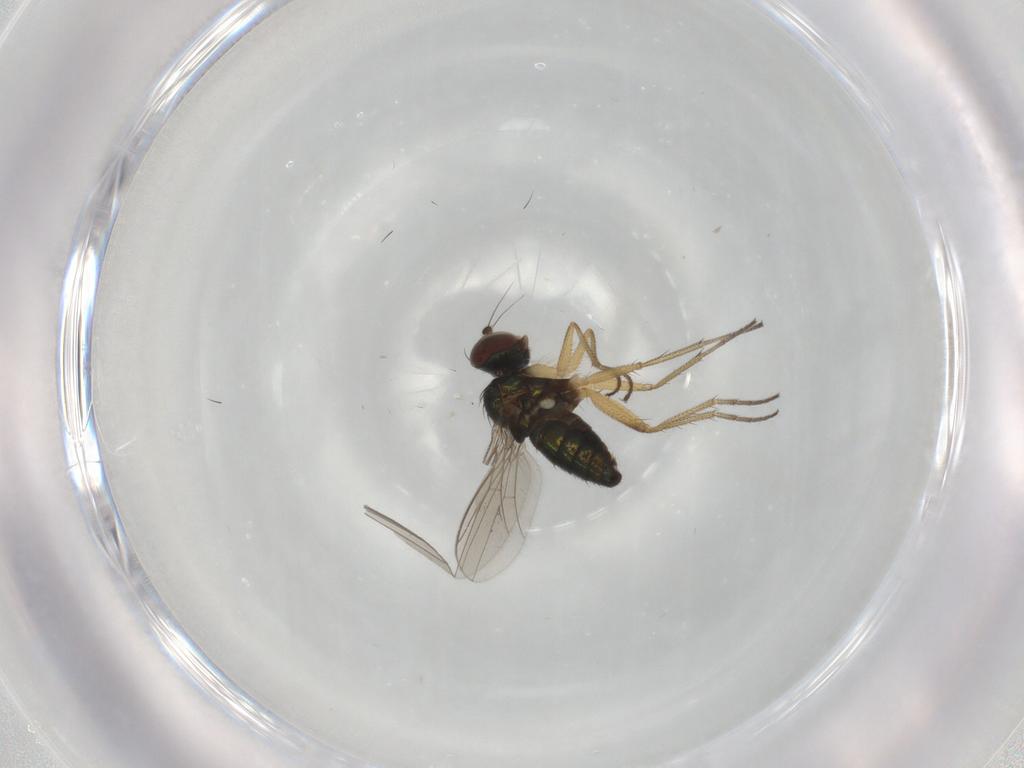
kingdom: Animalia
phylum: Arthropoda
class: Insecta
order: Diptera
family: Dolichopodidae
